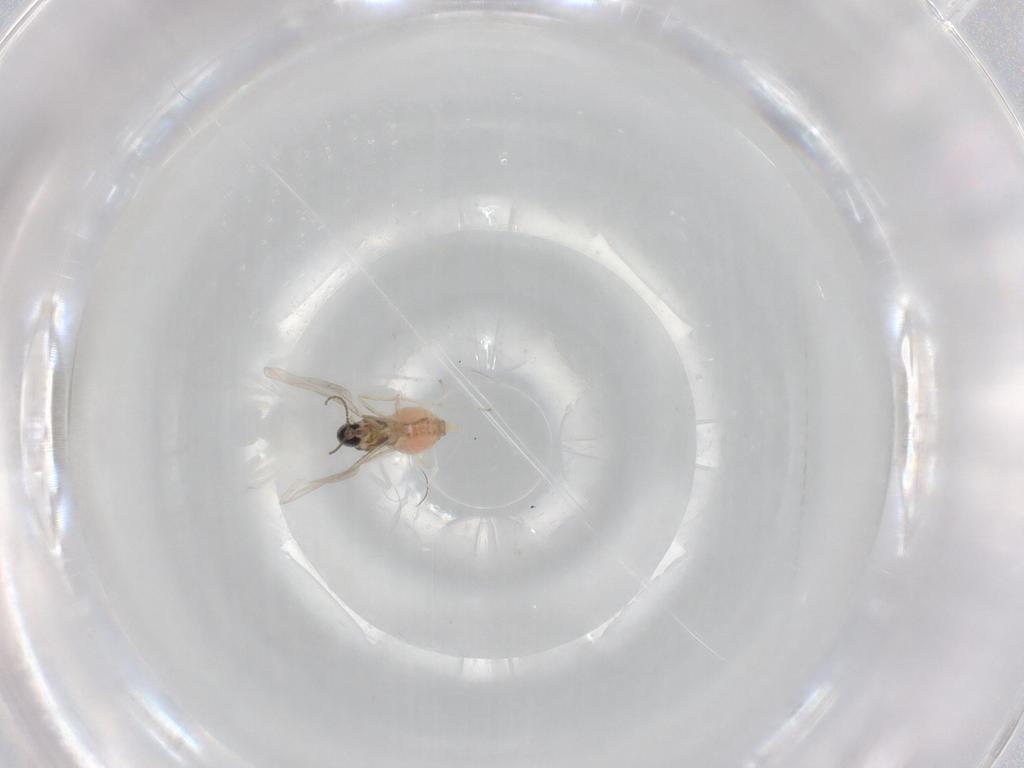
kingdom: Animalia
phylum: Arthropoda
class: Insecta
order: Diptera
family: Cecidomyiidae
